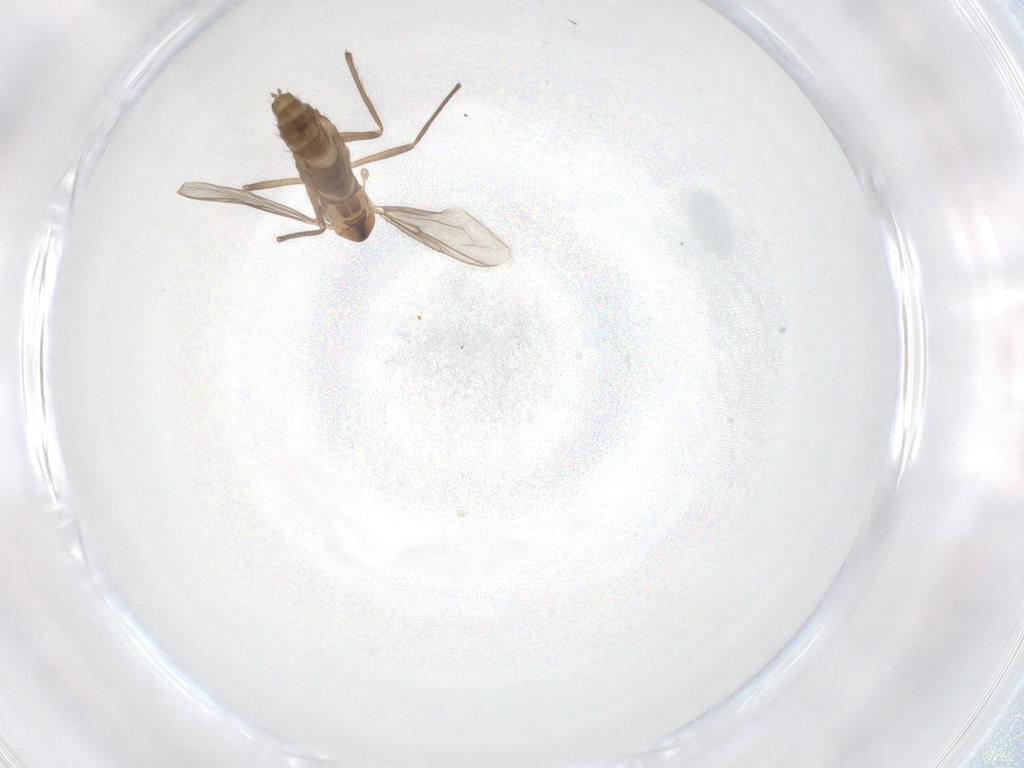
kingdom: Animalia
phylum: Arthropoda
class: Insecta
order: Diptera
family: Chironomidae
